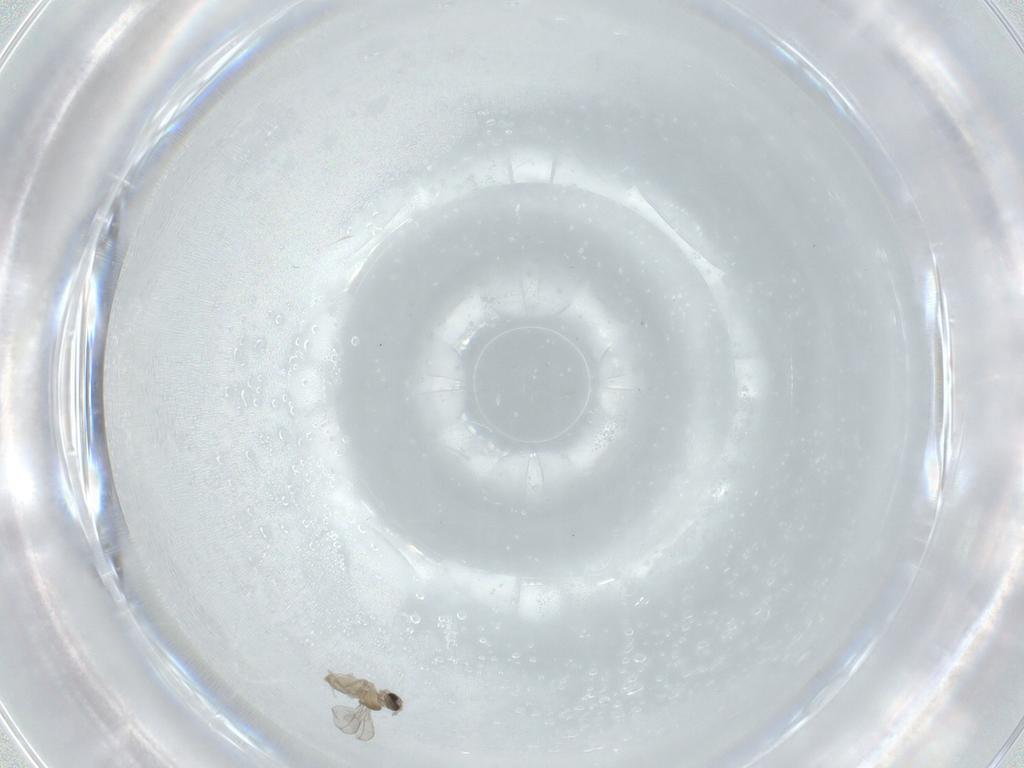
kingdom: Animalia
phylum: Arthropoda
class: Insecta
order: Diptera
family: Cecidomyiidae
